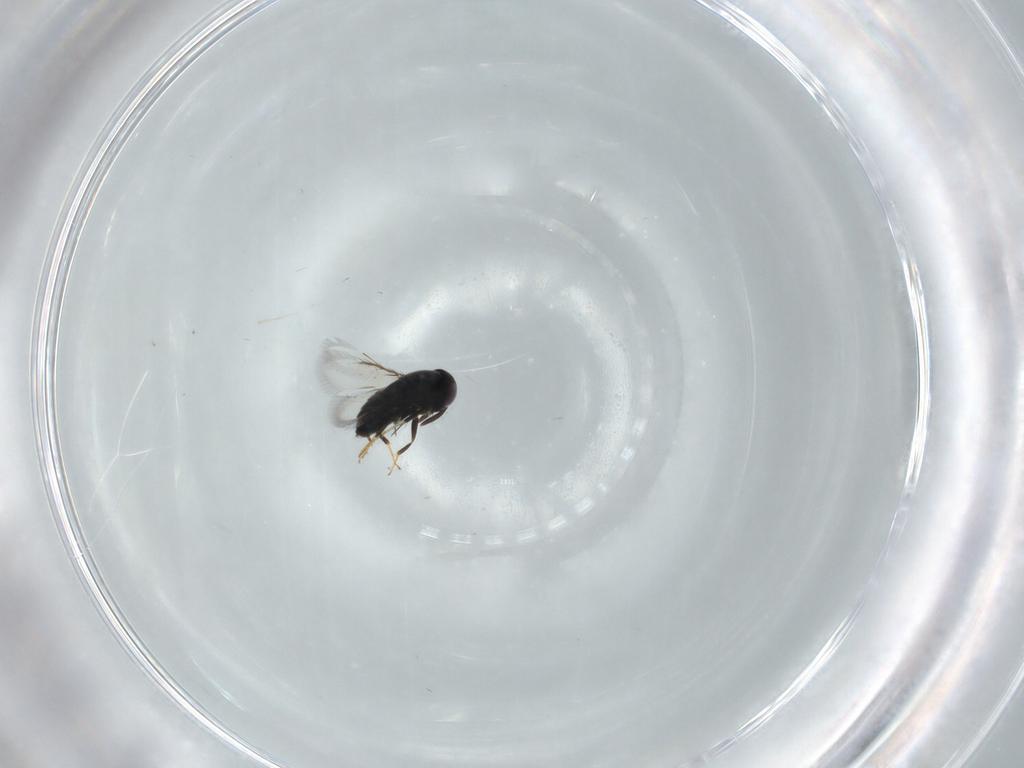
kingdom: Animalia
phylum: Arthropoda
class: Insecta
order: Hymenoptera
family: Signiphoridae
